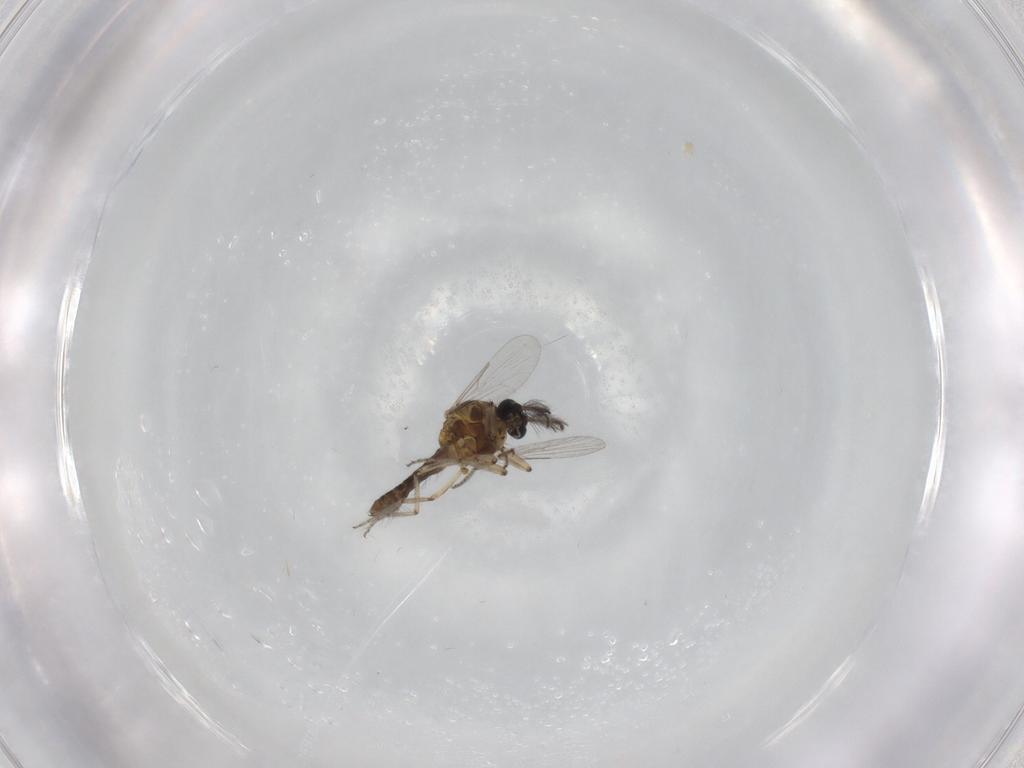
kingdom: Animalia
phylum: Arthropoda
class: Insecta
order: Diptera
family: Ceratopogonidae
